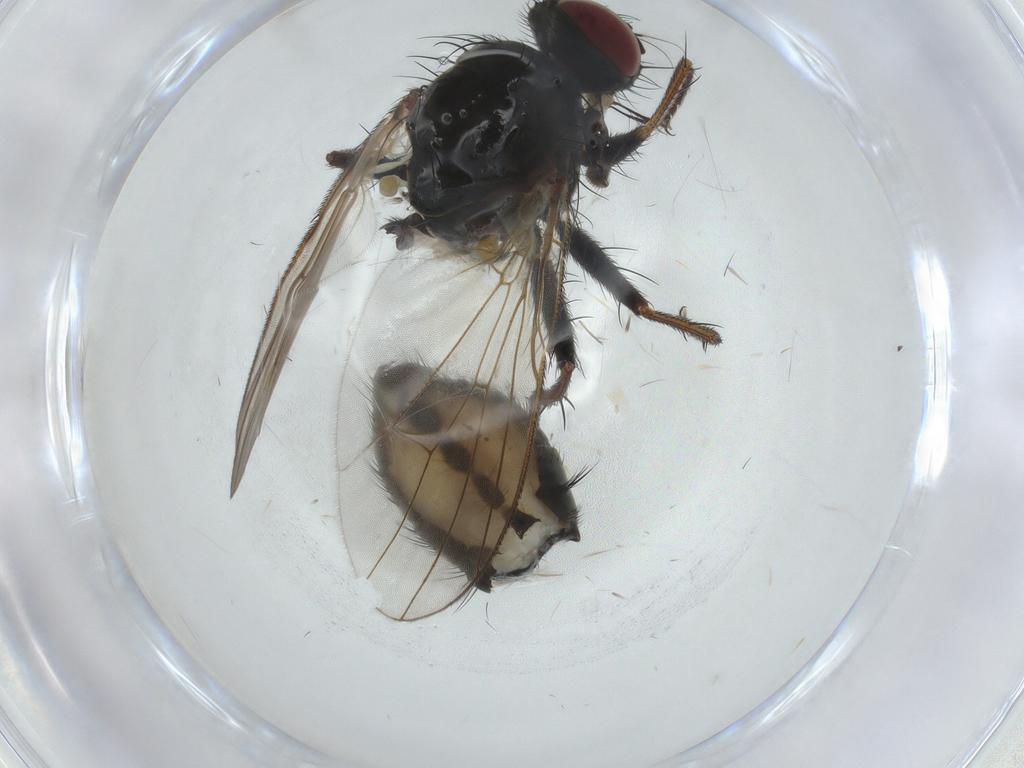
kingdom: Animalia
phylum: Arthropoda
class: Insecta
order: Diptera
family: Muscidae
